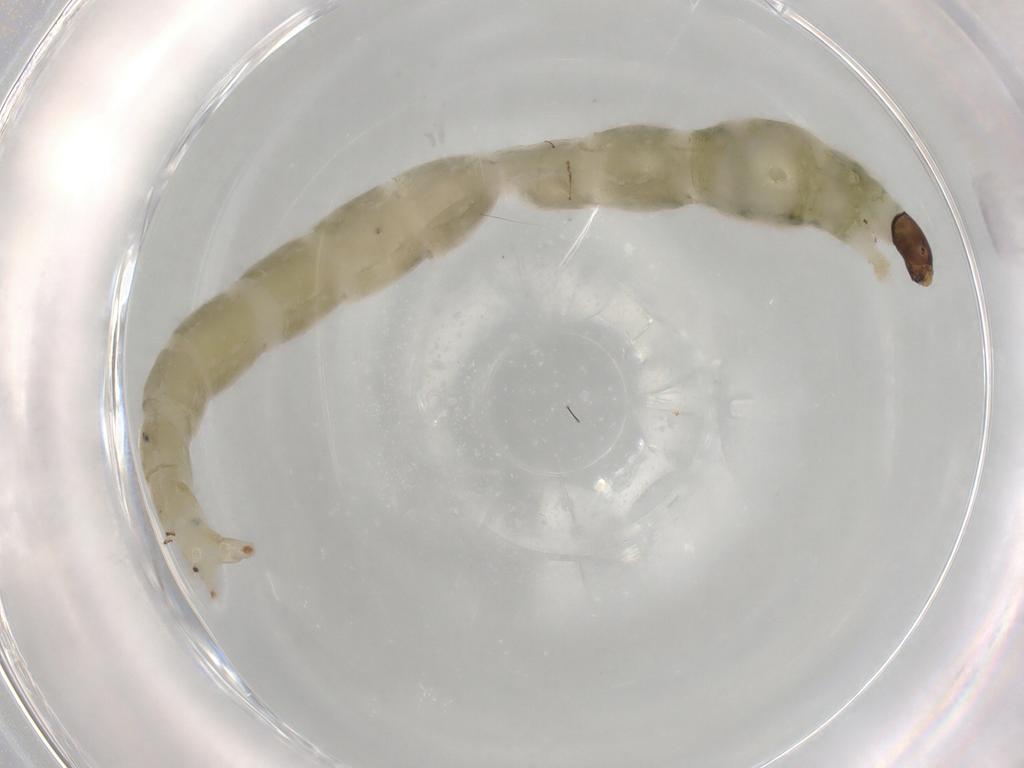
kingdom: Animalia
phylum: Arthropoda
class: Insecta
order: Diptera
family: Chironomidae
